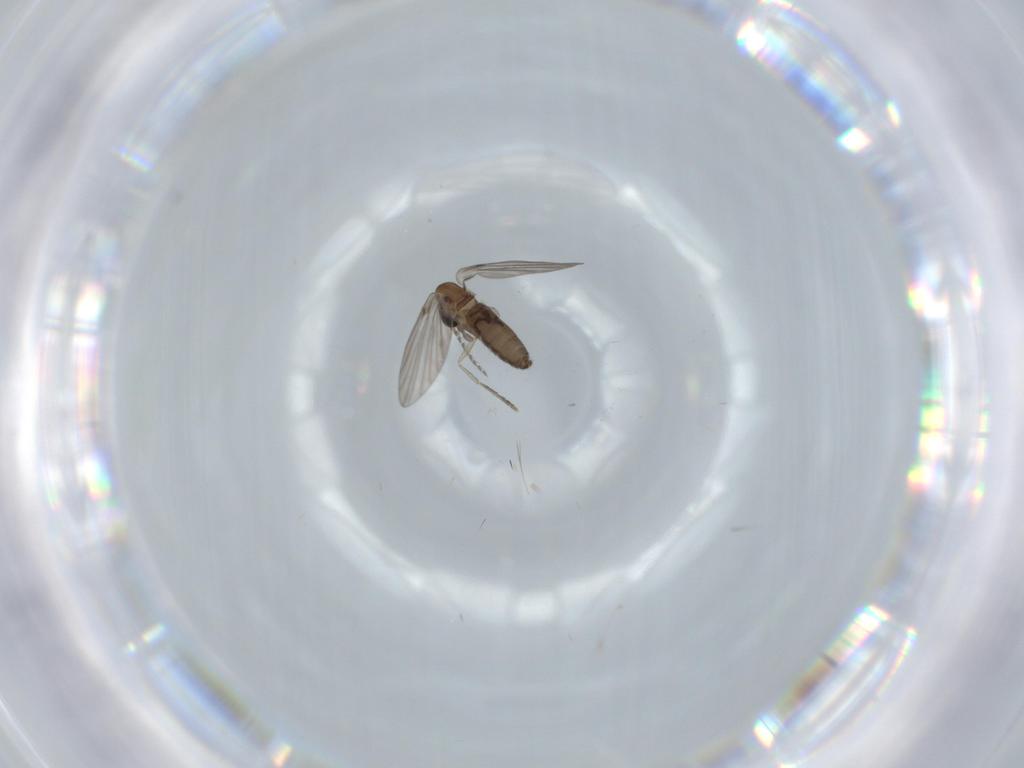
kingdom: Animalia
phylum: Arthropoda
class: Insecta
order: Diptera
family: Psychodidae
